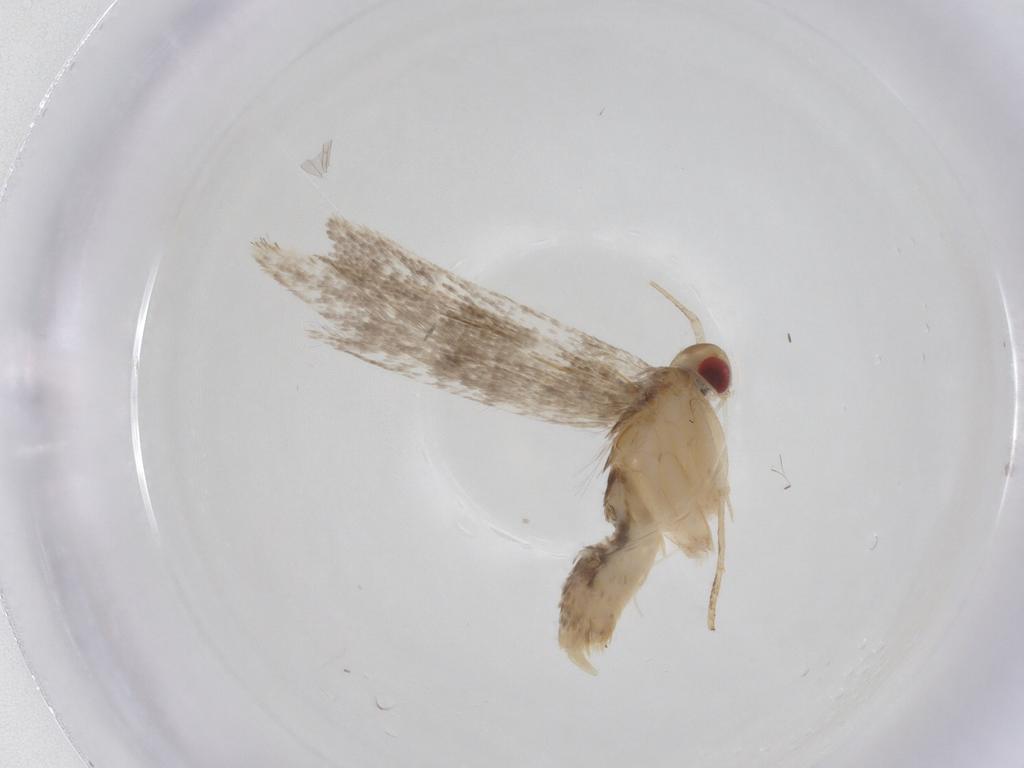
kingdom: Animalia
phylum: Arthropoda
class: Insecta
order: Lepidoptera
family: Cosmopterigidae
